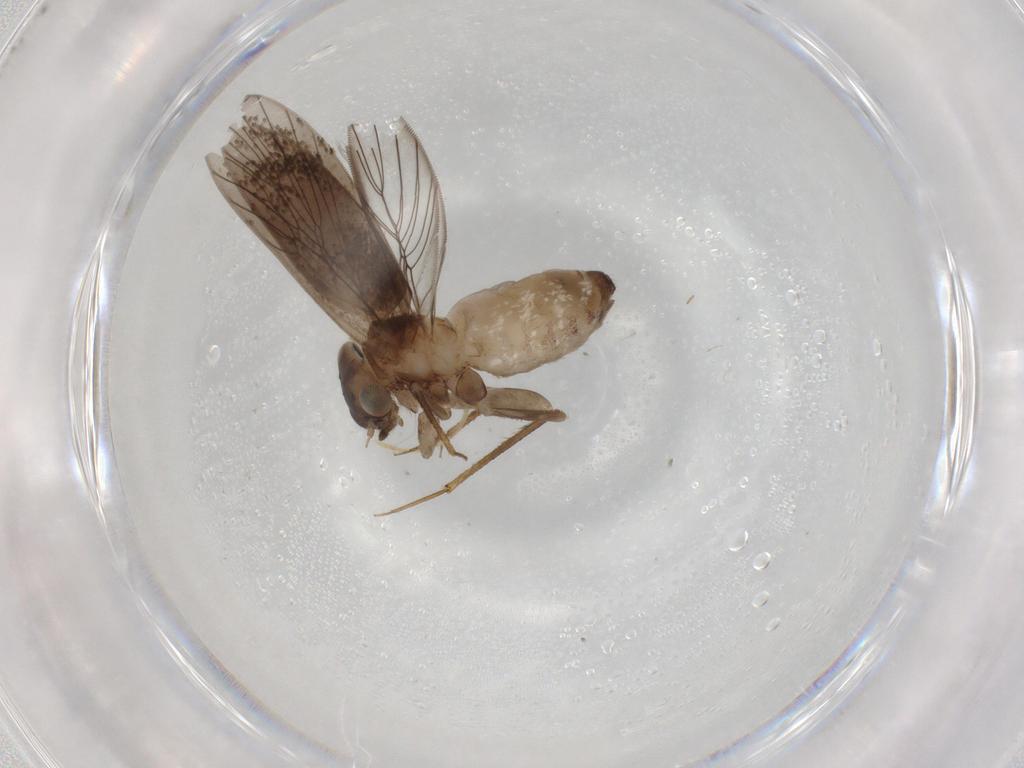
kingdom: Animalia
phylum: Arthropoda
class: Insecta
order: Psocodea
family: Lepidopsocidae
